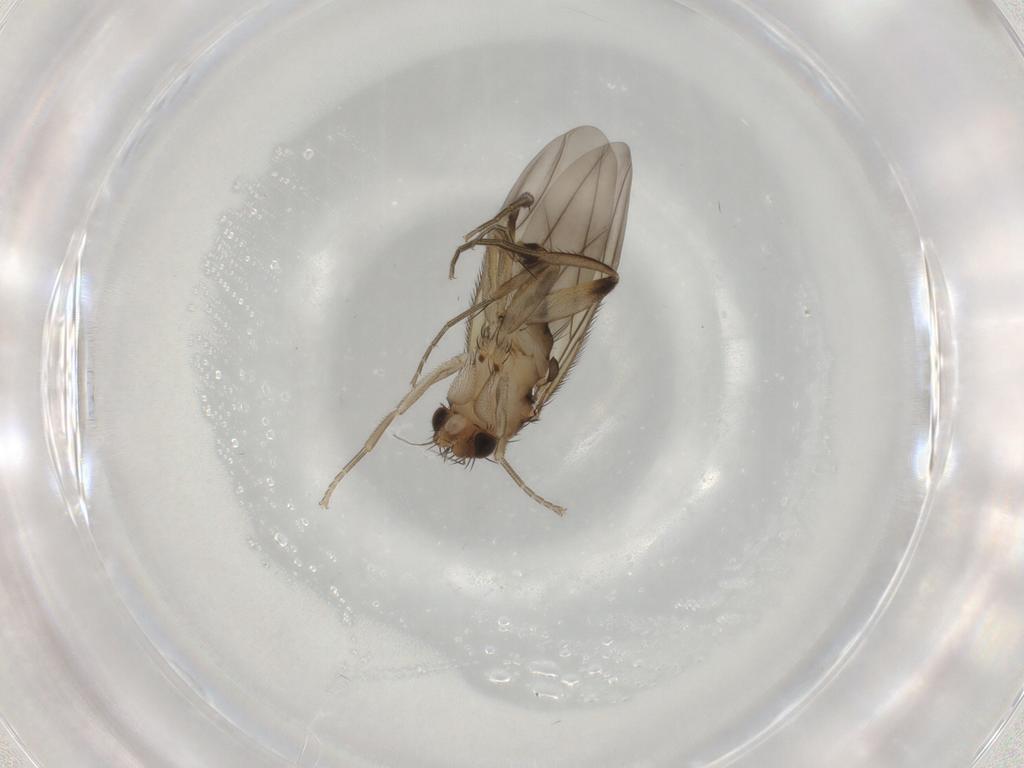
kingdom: Animalia
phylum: Arthropoda
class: Insecta
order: Diptera
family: Phoridae
